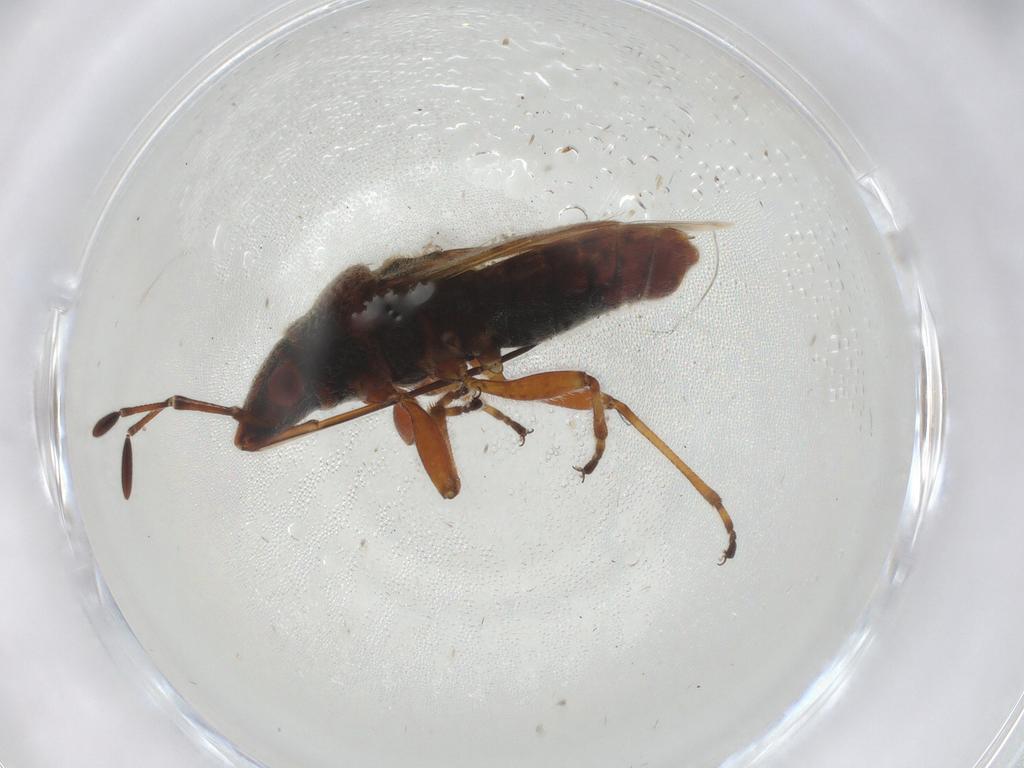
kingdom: Animalia
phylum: Arthropoda
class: Insecta
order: Hemiptera
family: Lygaeidae
